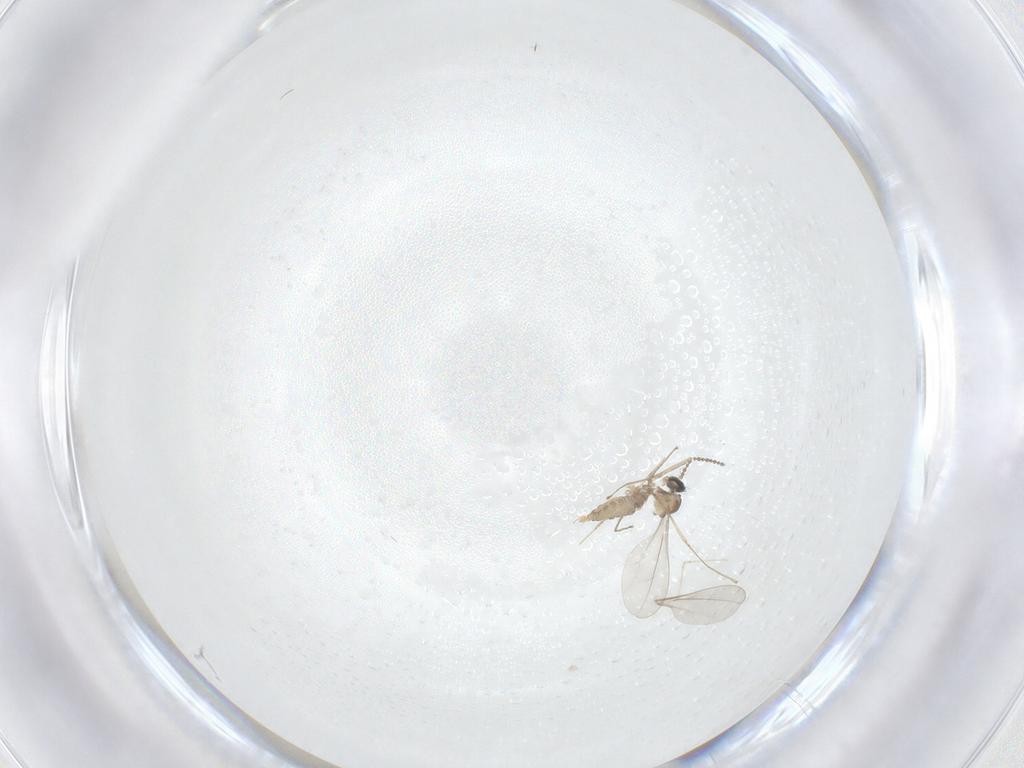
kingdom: Animalia
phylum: Arthropoda
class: Insecta
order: Diptera
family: Cecidomyiidae
